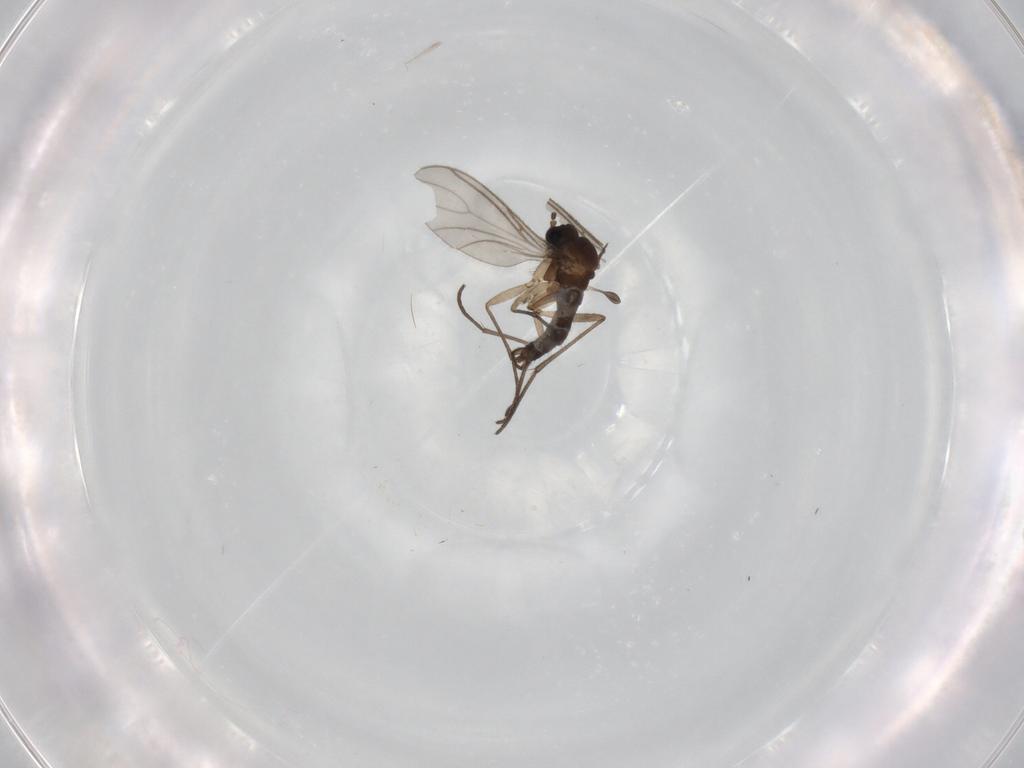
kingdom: Animalia
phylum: Arthropoda
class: Insecta
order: Diptera
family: Sciaridae
